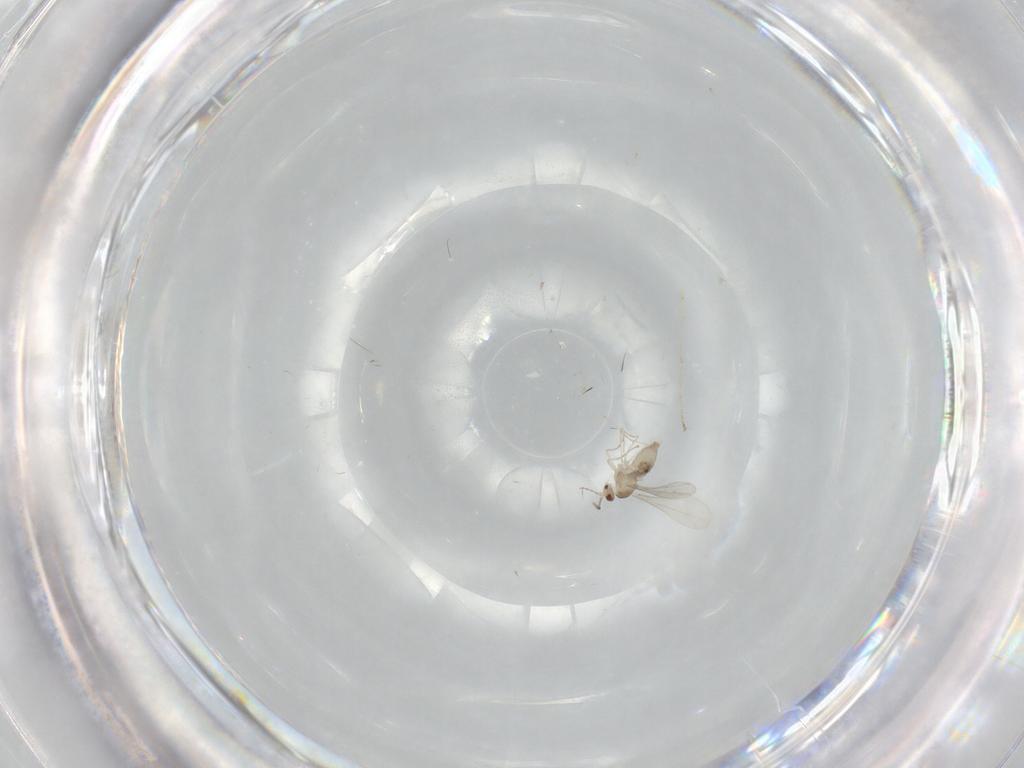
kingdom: Animalia
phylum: Arthropoda
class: Insecta
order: Diptera
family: Cecidomyiidae
